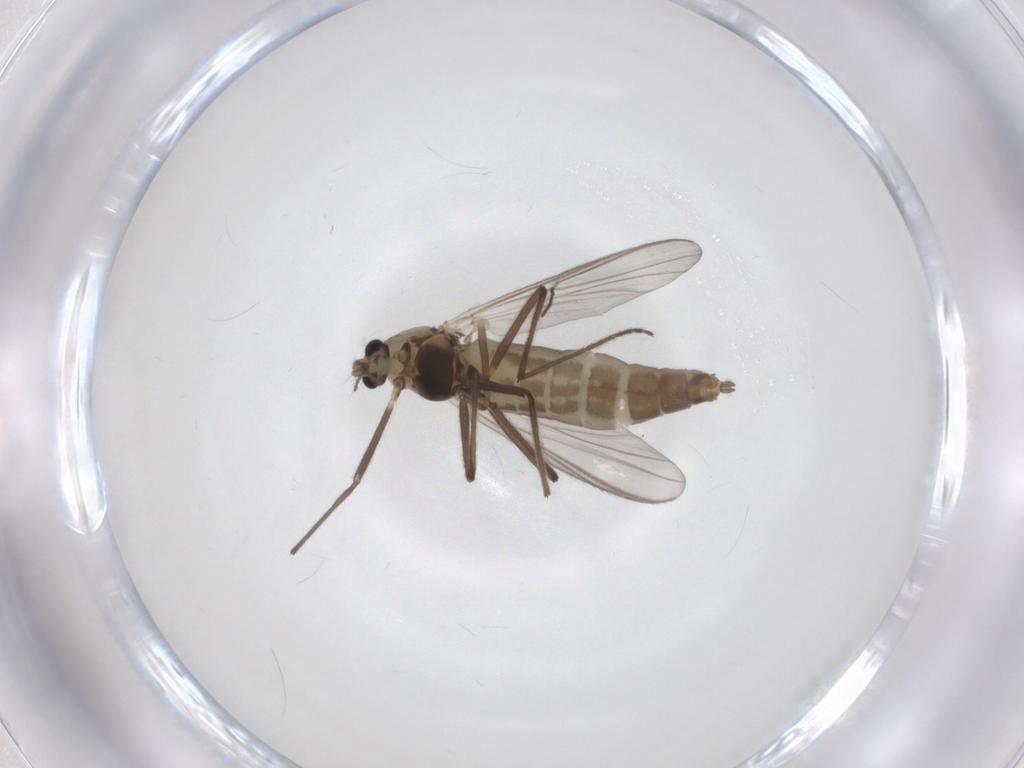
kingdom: Animalia
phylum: Arthropoda
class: Insecta
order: Diptera
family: Chironomidae
